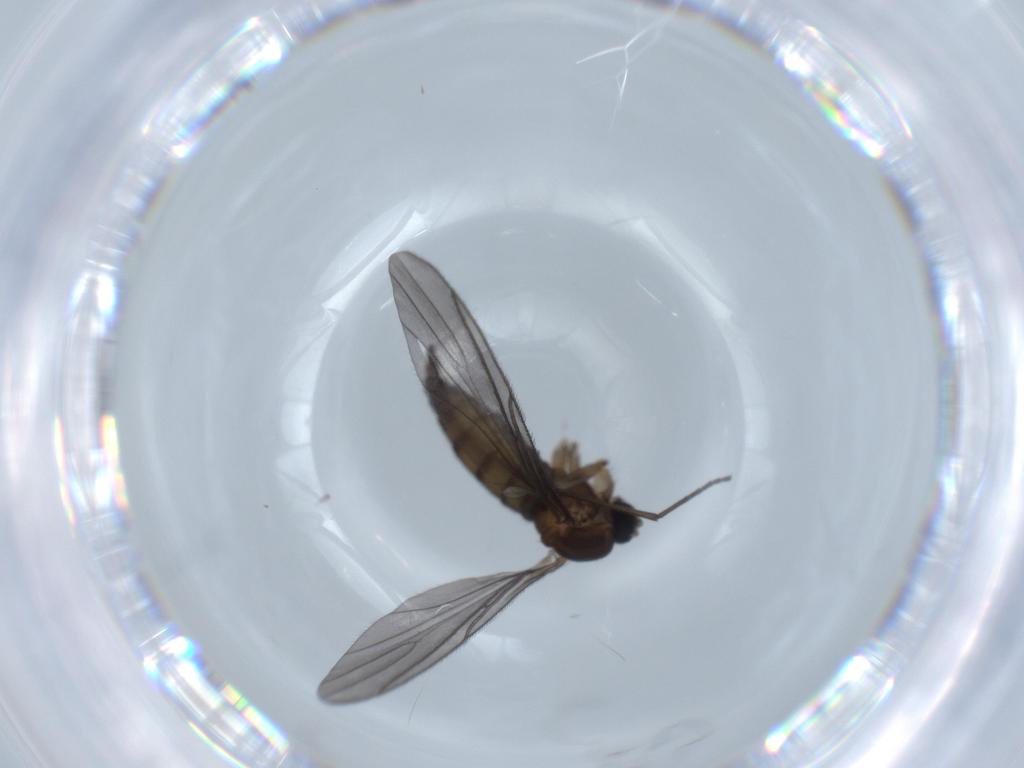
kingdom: Animalia
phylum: Arthropoda
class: Insecta
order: Diptera
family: Sciaridae
